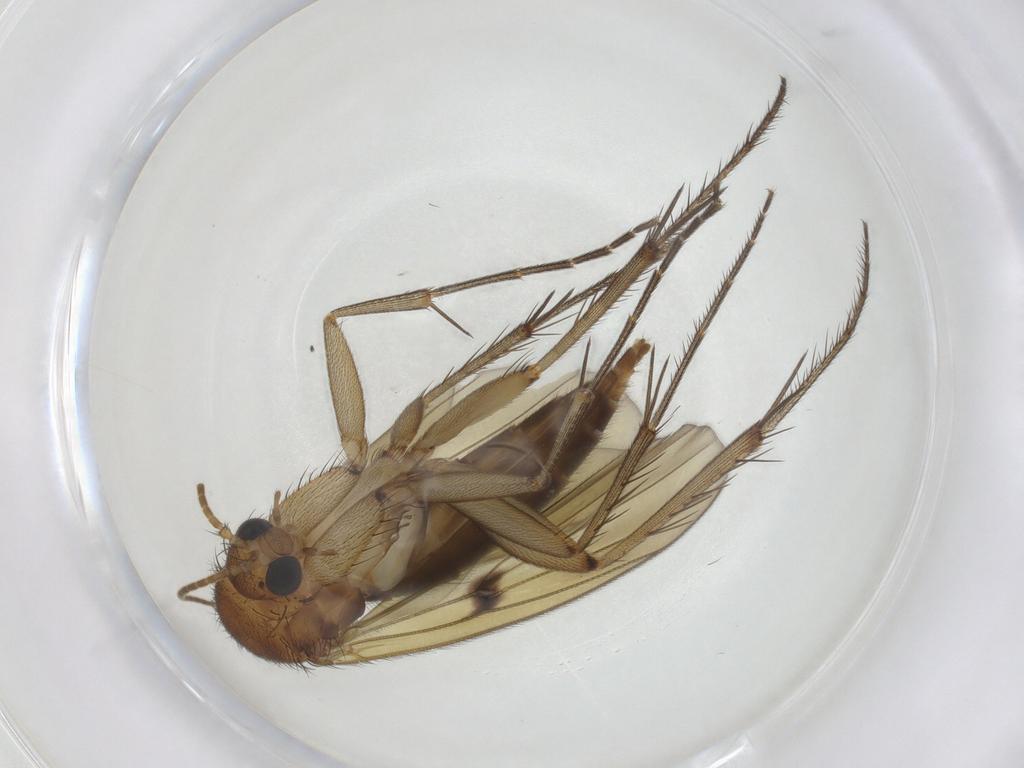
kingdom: Animalia
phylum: Arthropoda
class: Insecta
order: Diptera
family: Mycetophilidae
